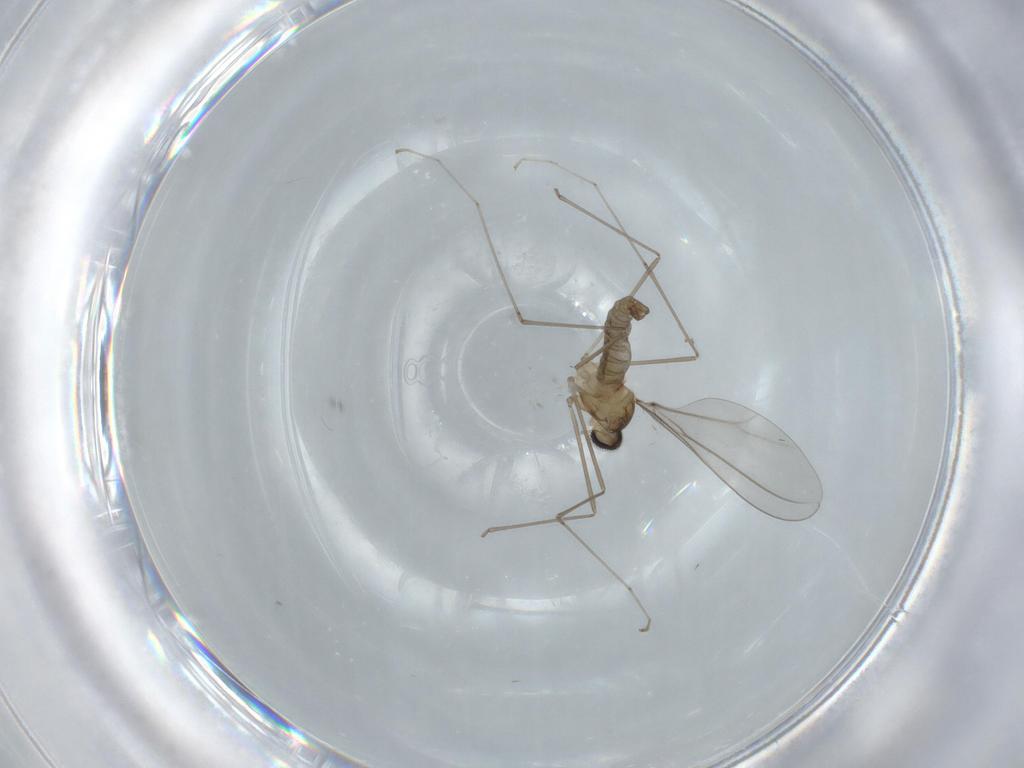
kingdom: Animalia
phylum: Arthropoda
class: Insecta
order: Diptera
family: Cecidomyiidae
